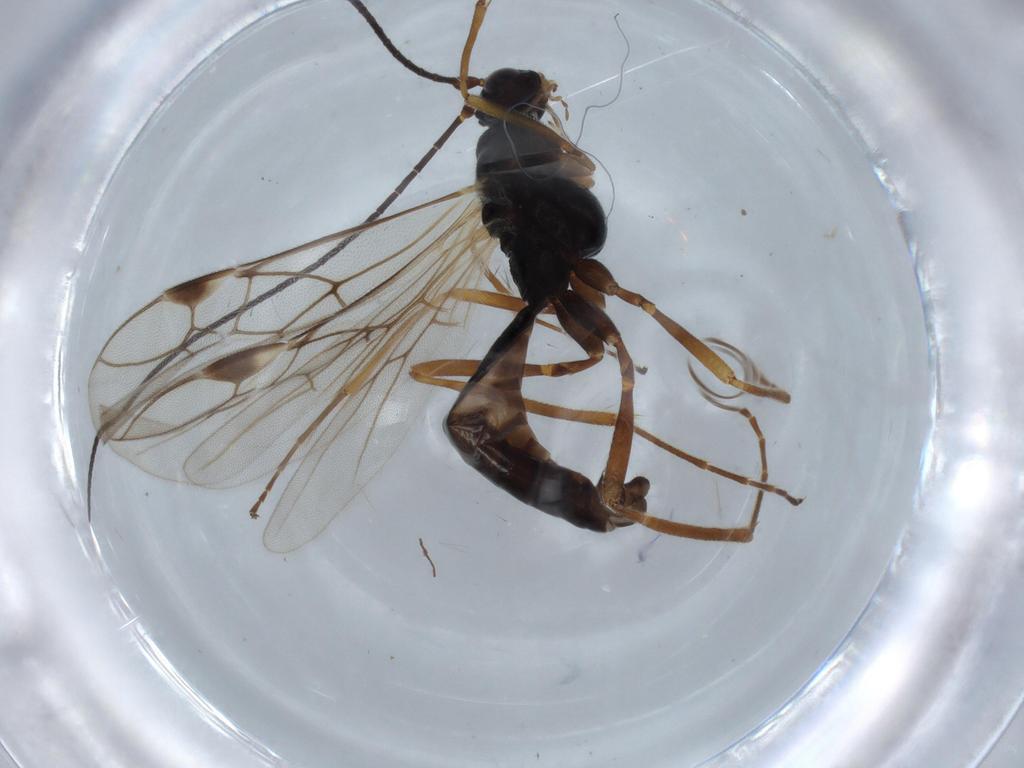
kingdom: Animalia
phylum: Arthropoda
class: Insecta
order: Hymenoptera
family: Braconidae
